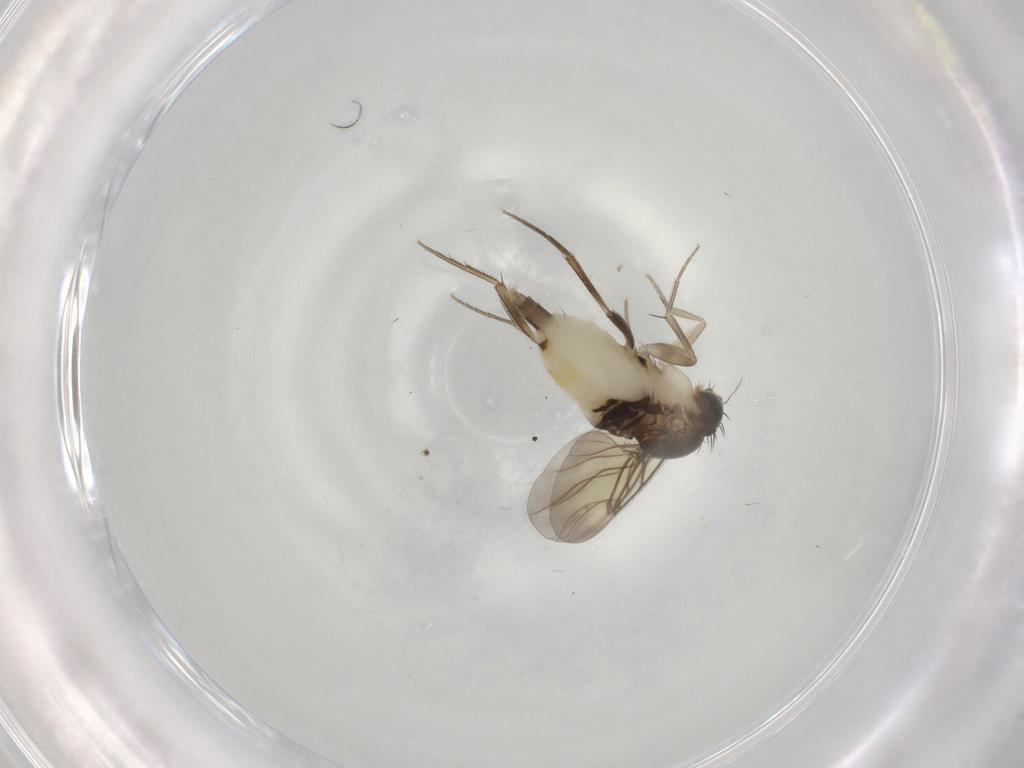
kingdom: Animalia
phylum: Arthropoda
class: Insecta
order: Diptera
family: Phoridae
